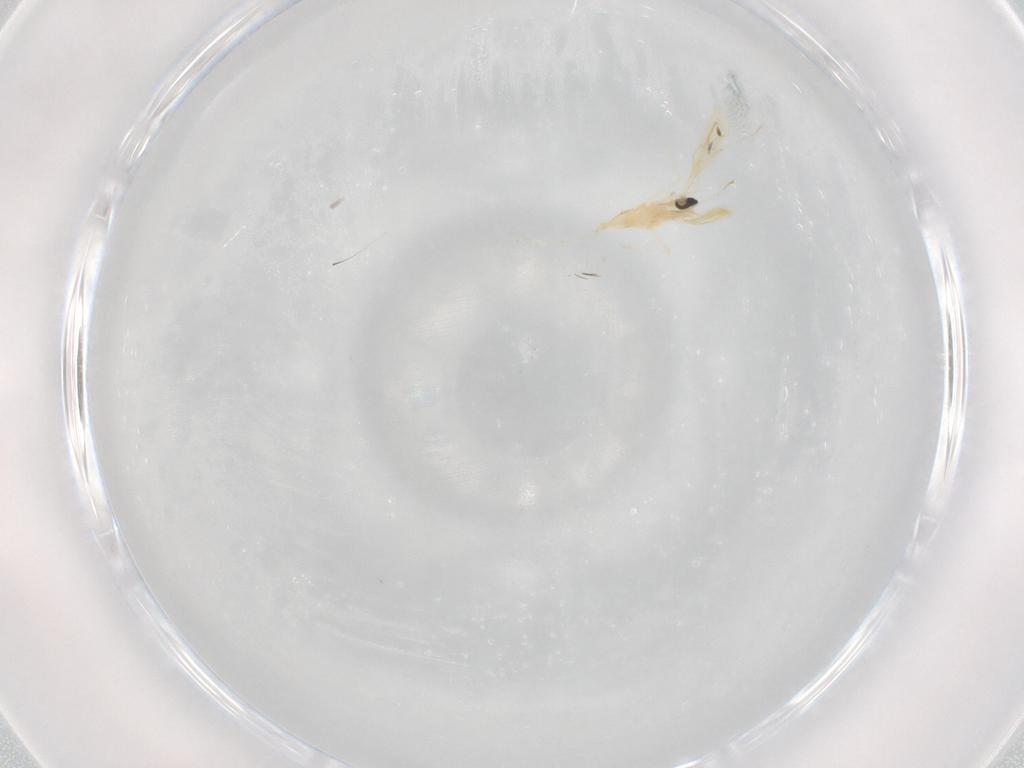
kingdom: Animalia
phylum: Arthropoda
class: Insecta
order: Diptera
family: Cecidomyiidae
